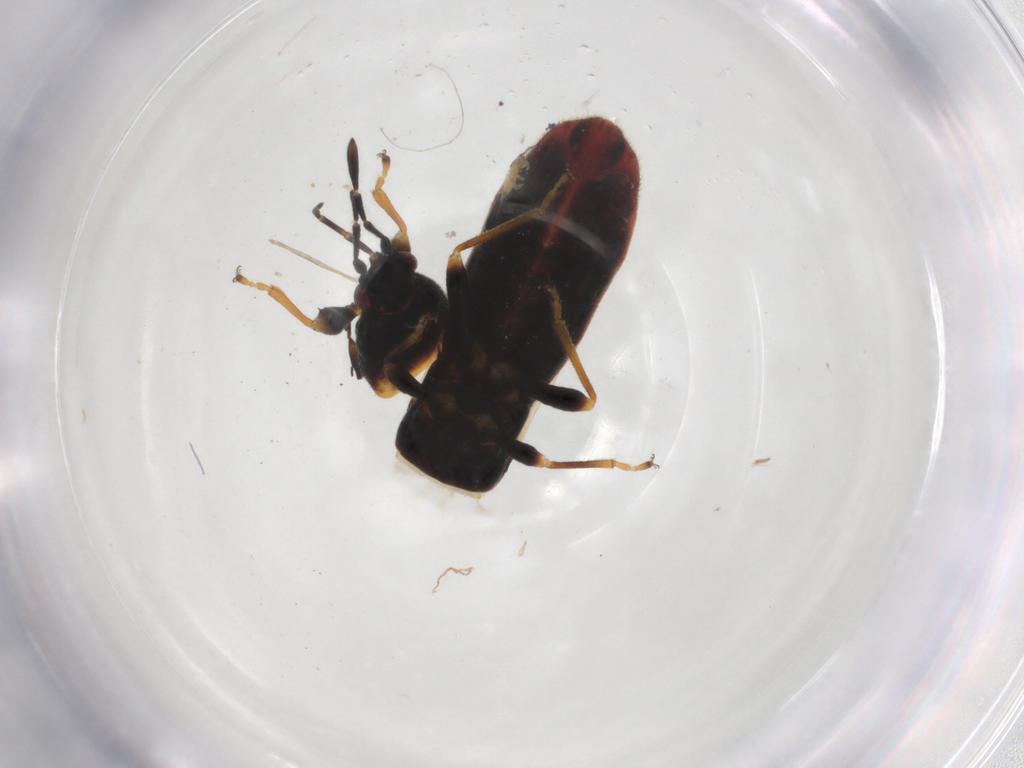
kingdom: Animalia
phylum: Arthropoda
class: Insecta
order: Hemiptera
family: Blissidae
